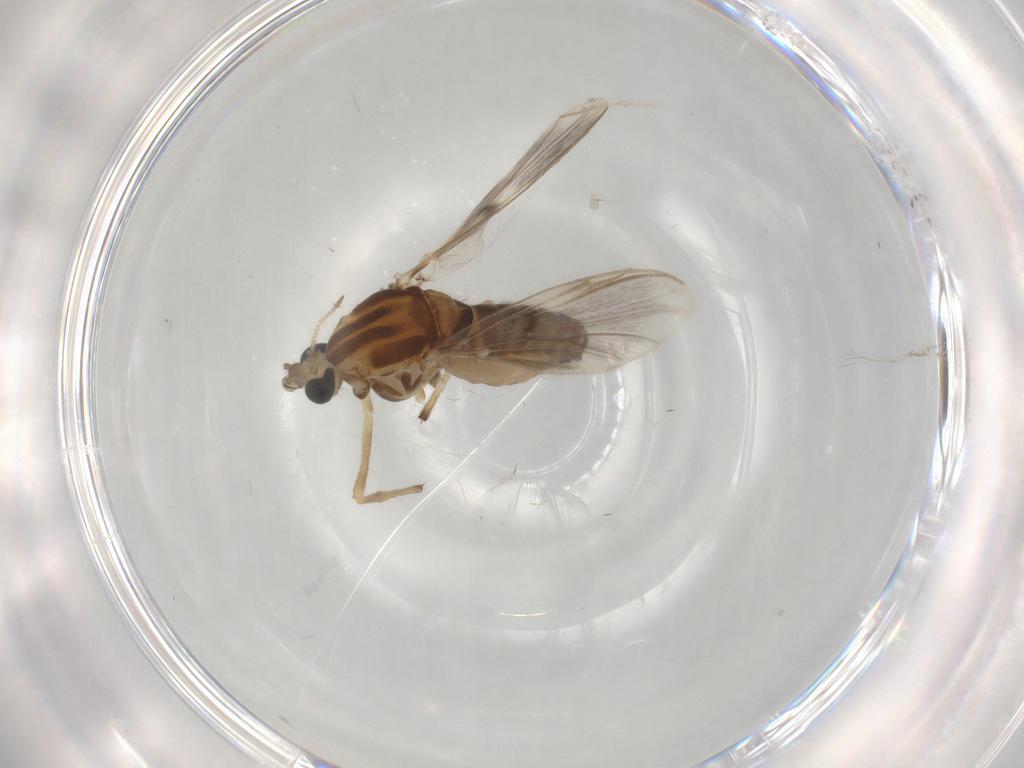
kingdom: Animalia
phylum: Arthropoda
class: Insecta
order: Diptera
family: Chironomidae
